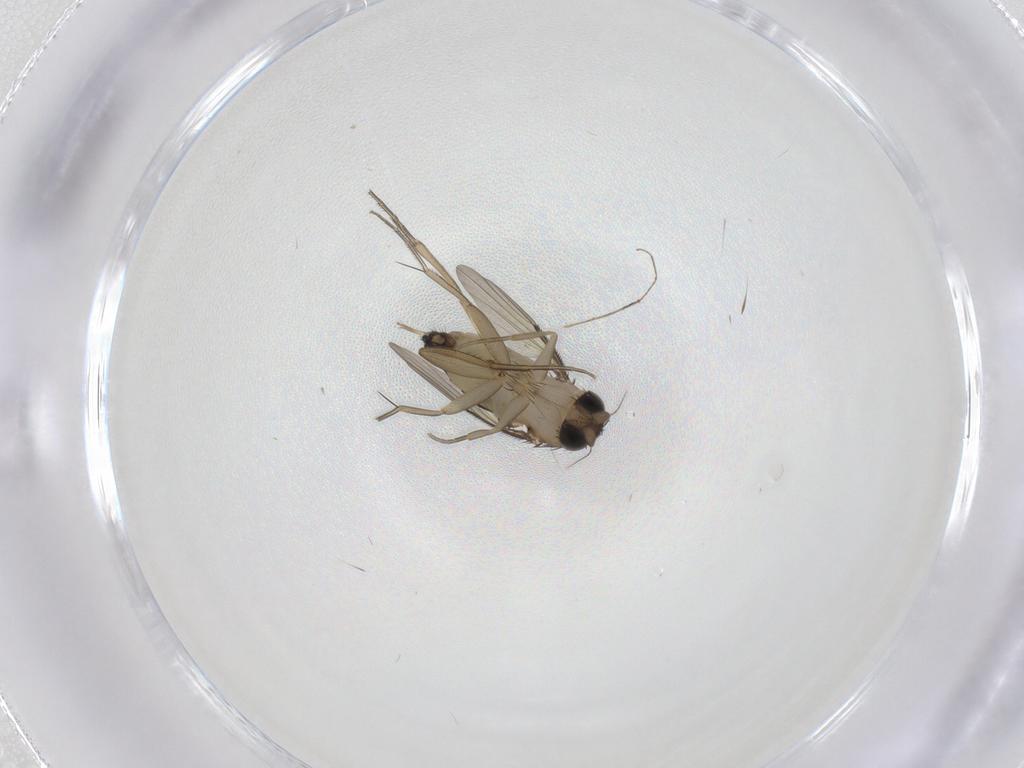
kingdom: Animalia
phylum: Arthropoda
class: Insecta
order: Diptera
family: Phoridae
